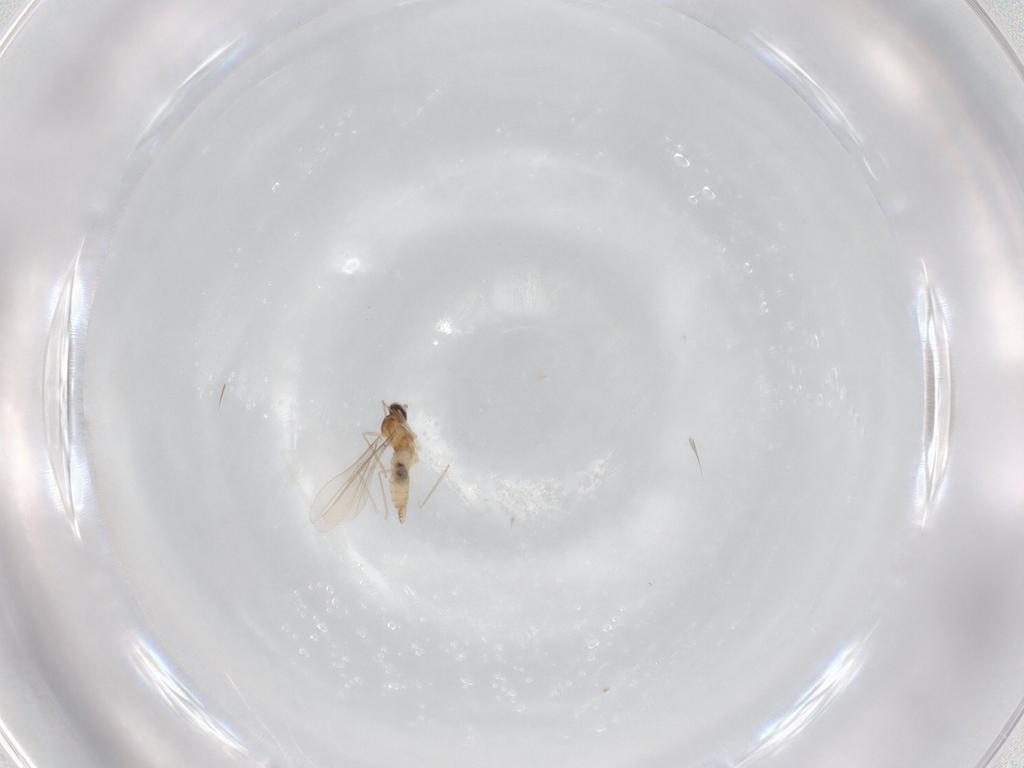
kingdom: Animalia
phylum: Arthropoda
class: Insecta
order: Diptera
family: Cecidomyiidae
